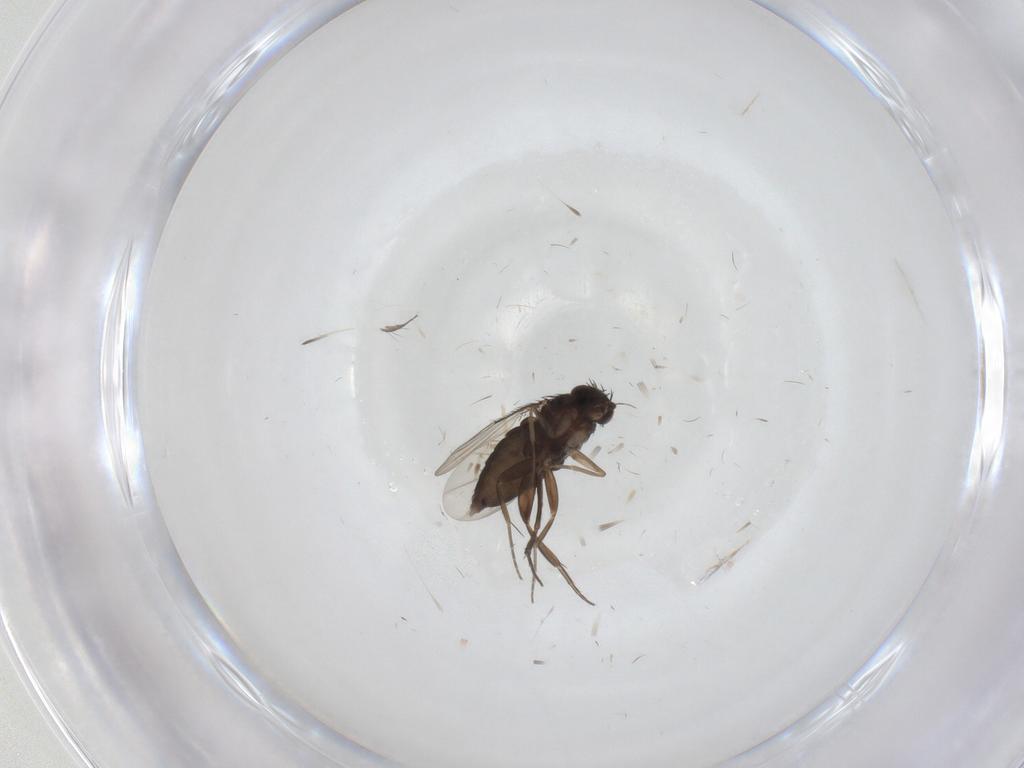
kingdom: Animalia
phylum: Arthropoda
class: Insecta
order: Diptera
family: Phoridae
